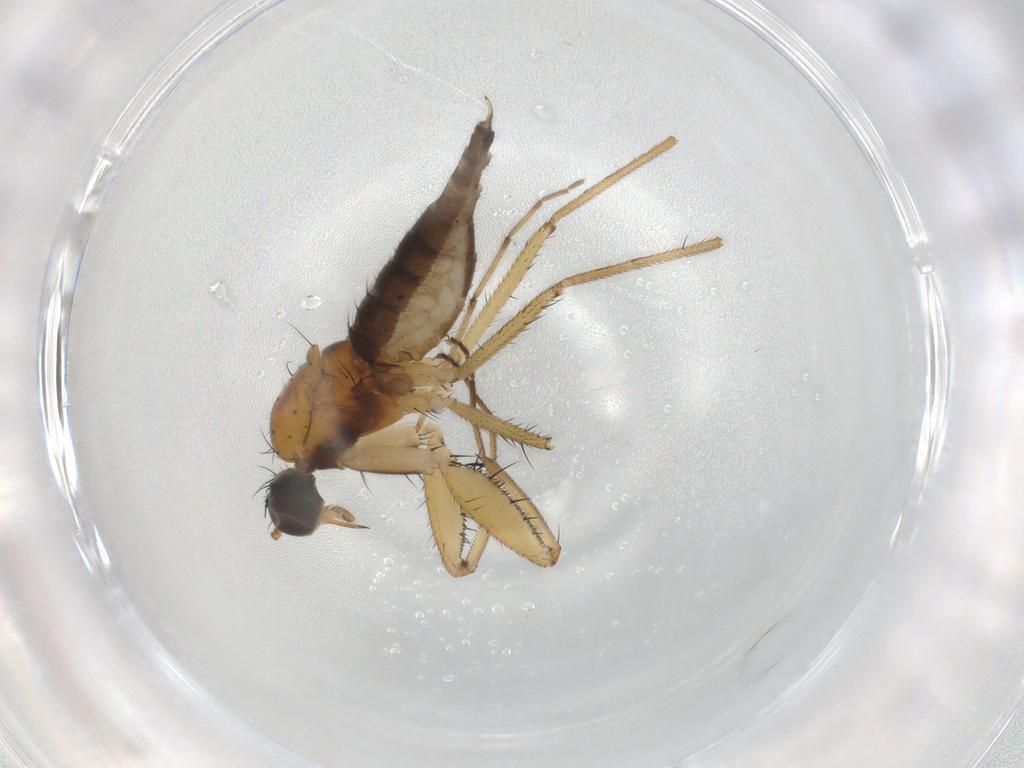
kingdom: Animalia
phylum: Arthropoda
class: Insecta
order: Diptera
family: Empididae
